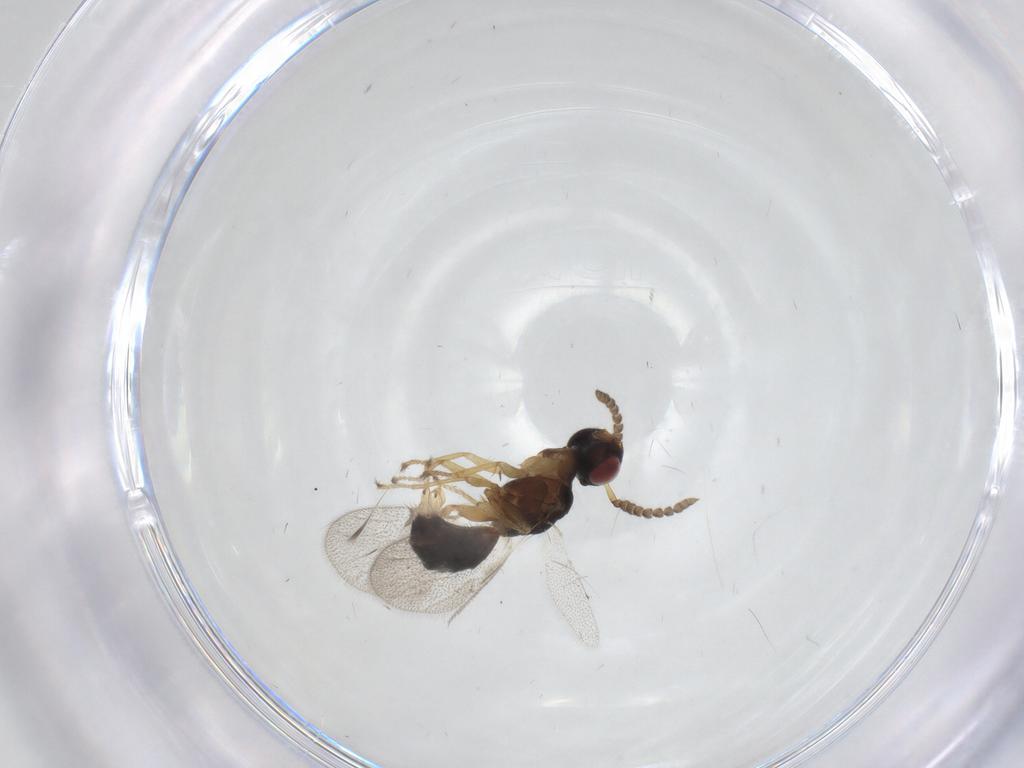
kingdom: Animalia
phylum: Arthropoda
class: Insecta
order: Hymenoptera
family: Agaonidae
